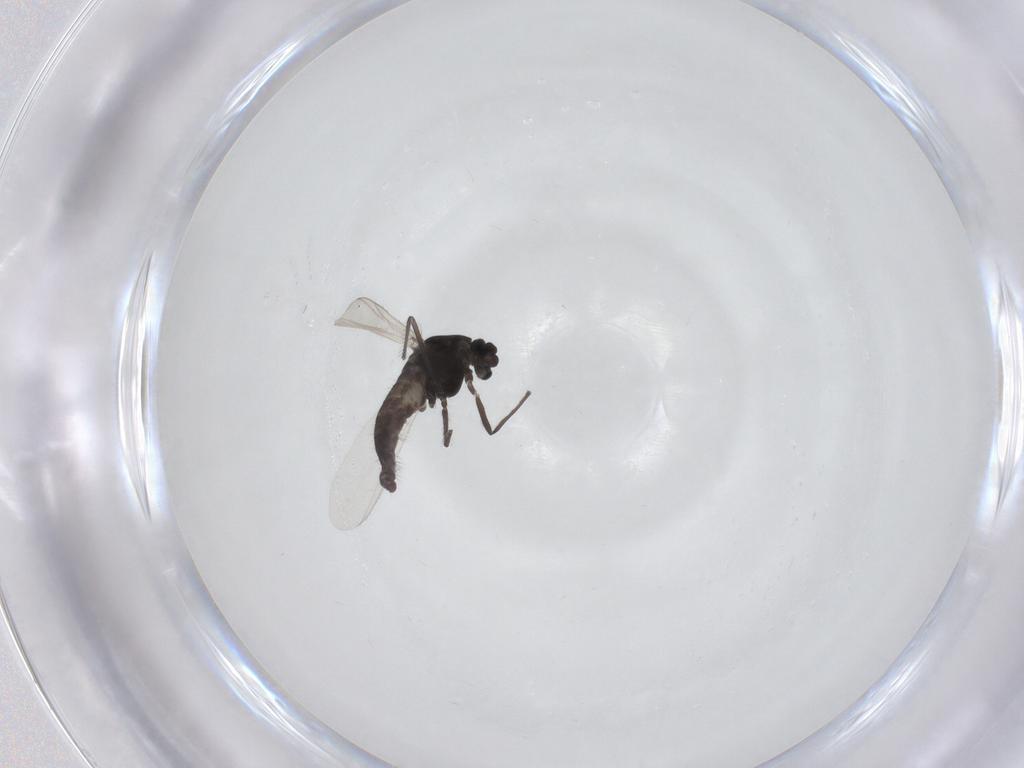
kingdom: Animalia
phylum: Arthropoda
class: Insecta
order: Diptera
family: Chironomidae
